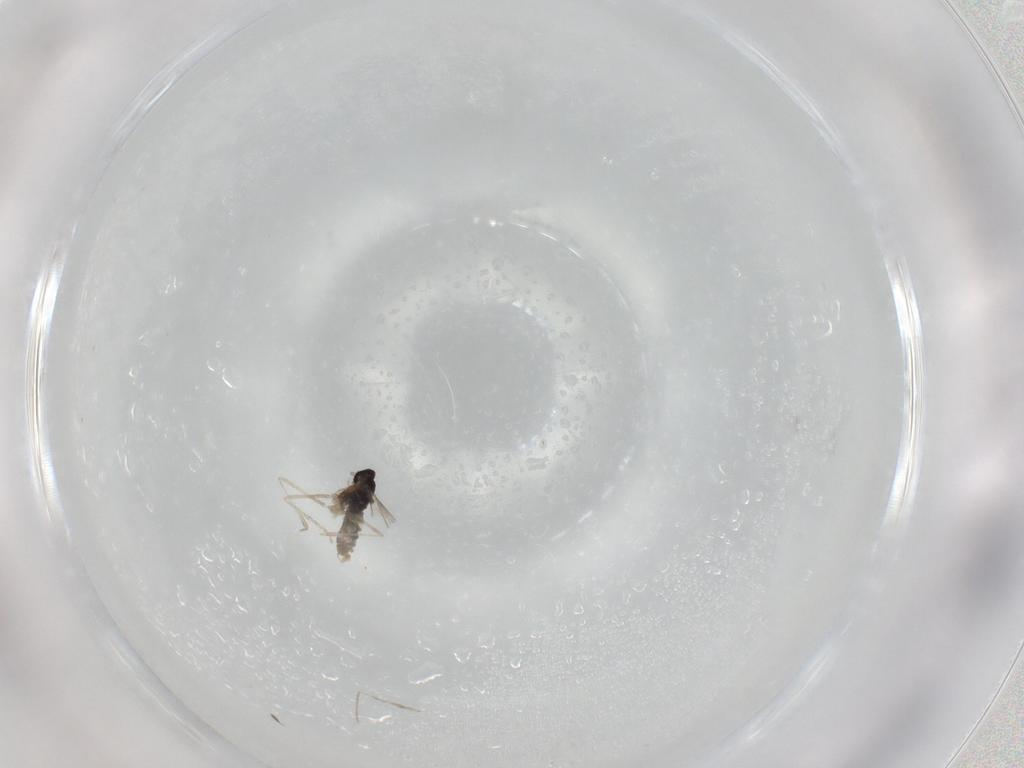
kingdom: Animalia
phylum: Arthropoda
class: Insecta
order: Diptera
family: Cecidomyiidae
